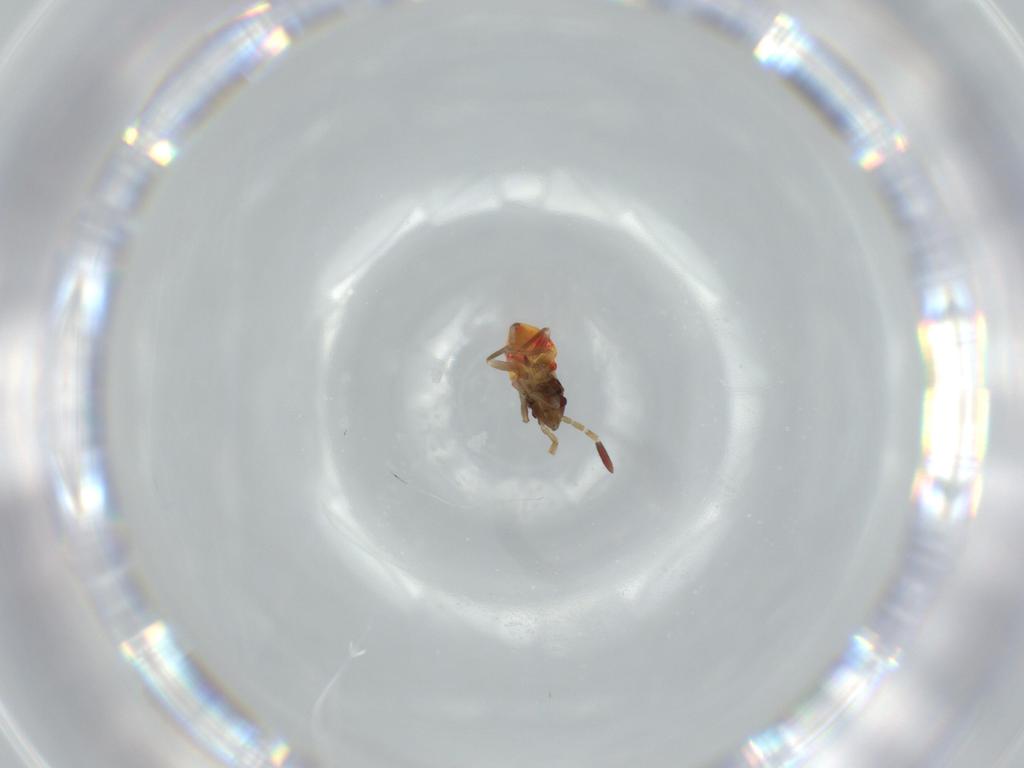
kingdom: Animalia
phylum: Arthropoda
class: Insecta
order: Hemiptera
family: Rhyparochromidae
